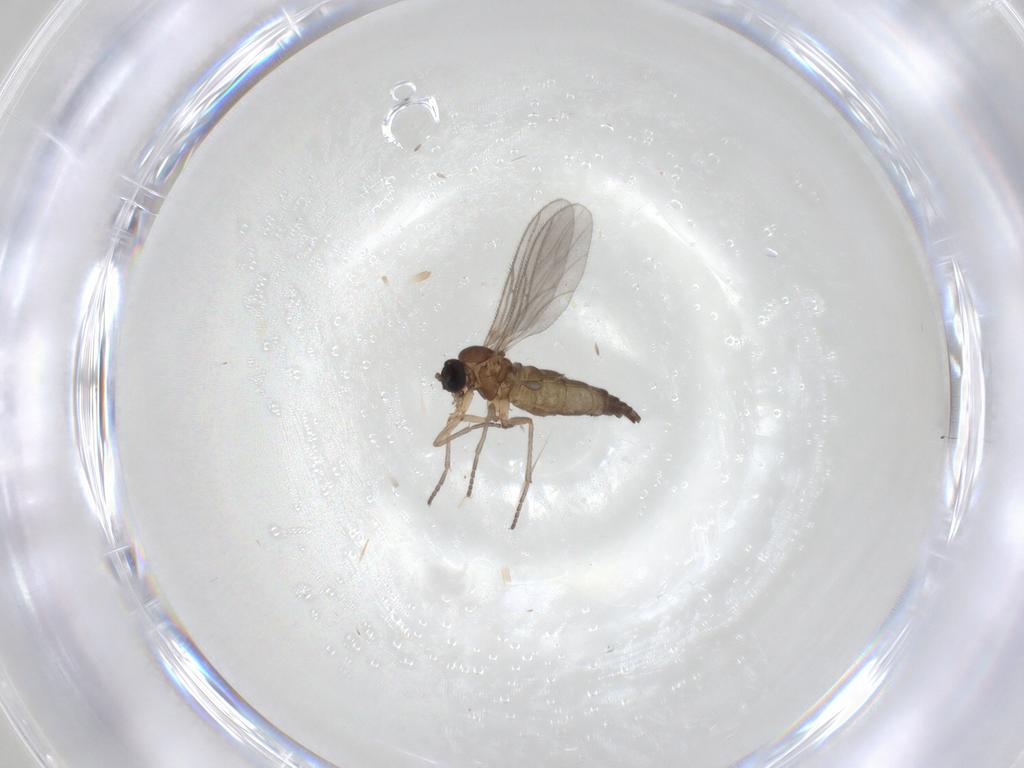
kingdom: Animalia
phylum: Arthropoda
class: Insecta
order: Diptera
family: Ceratopogonidae
